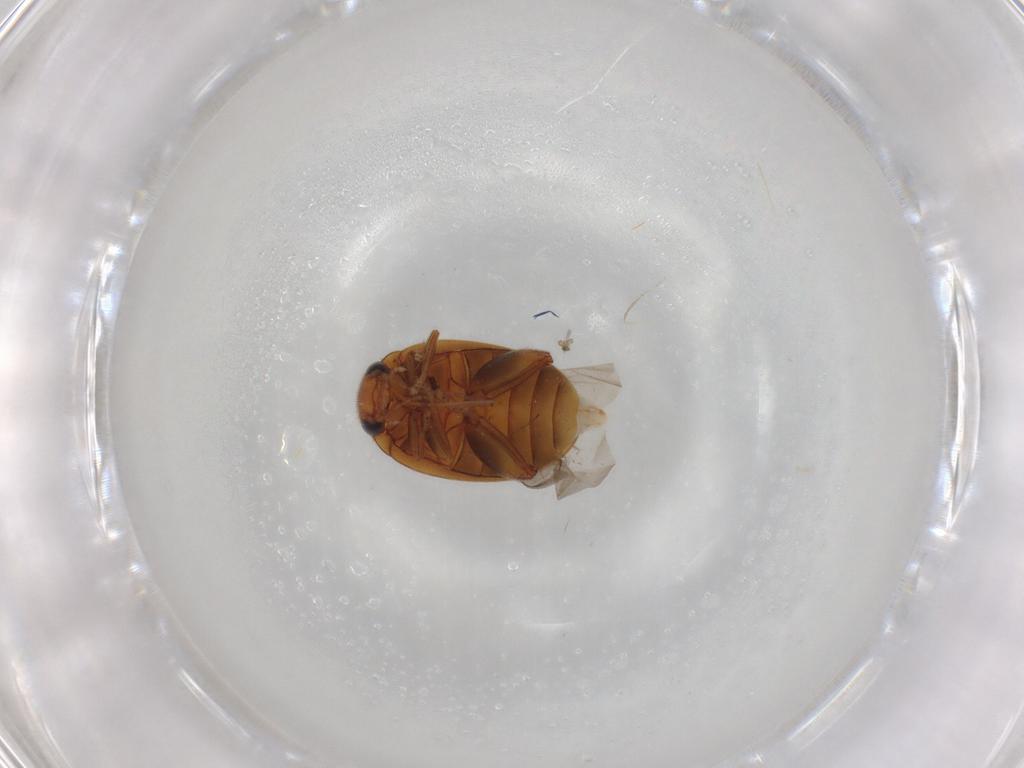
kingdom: Animalia
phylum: Arthropoda
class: Insecta
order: Coleoptera
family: Scirtidae
